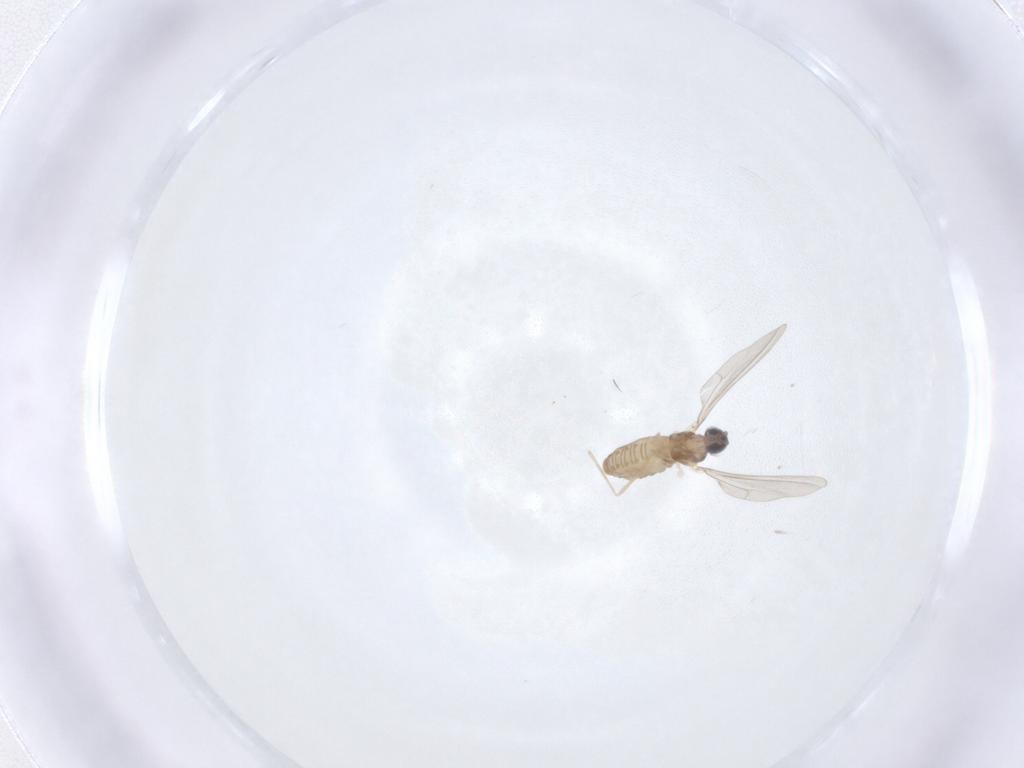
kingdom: Animalia
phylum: Arthropoda
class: Insecta
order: Diptera
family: Cecidomyiidae
